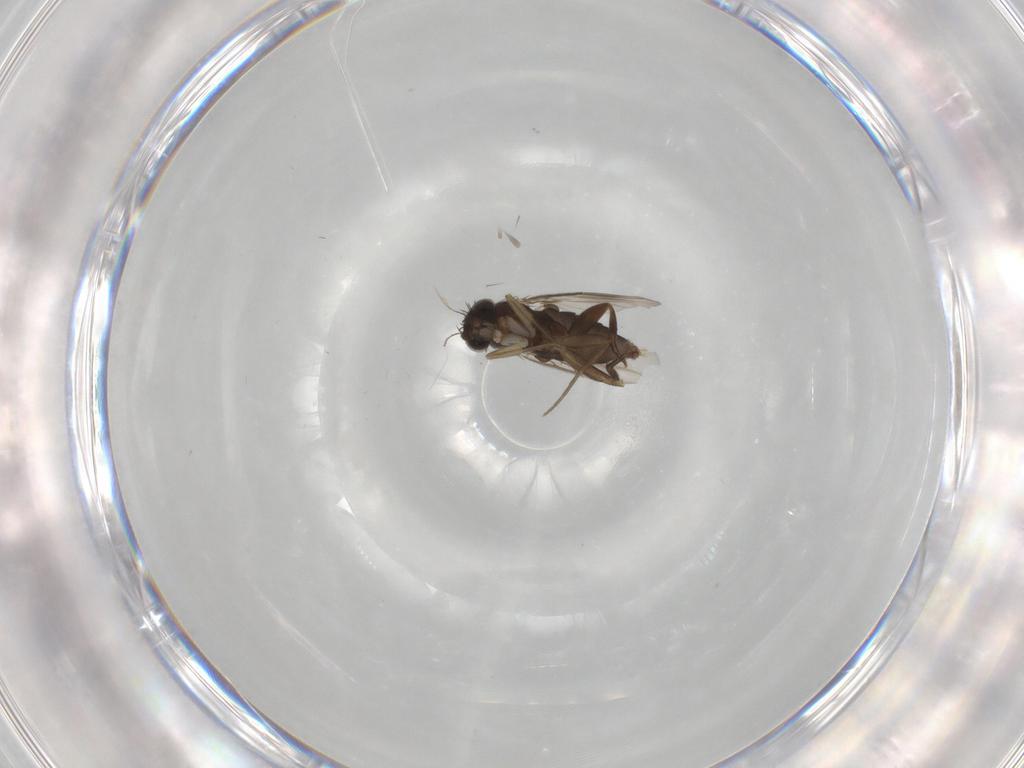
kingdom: Animalia
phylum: Arthropoda
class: Insecta
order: Diptera
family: Phoridae
